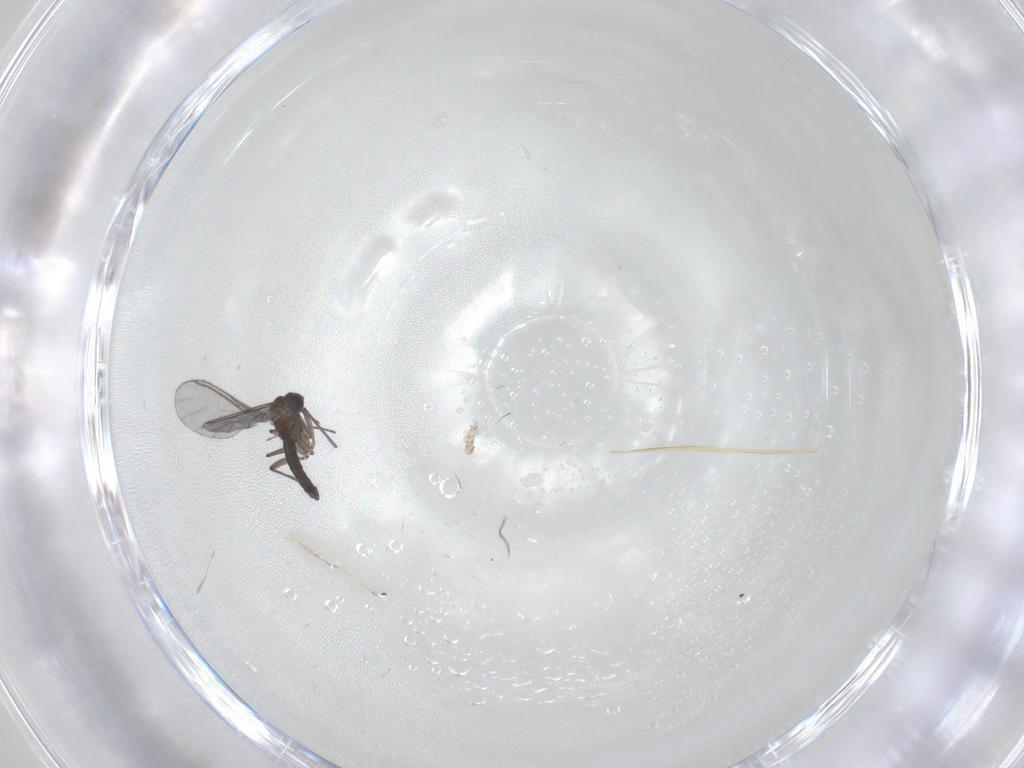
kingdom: Animalia
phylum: Arthropoda
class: Insecta
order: Diptera
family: Sciaridae
